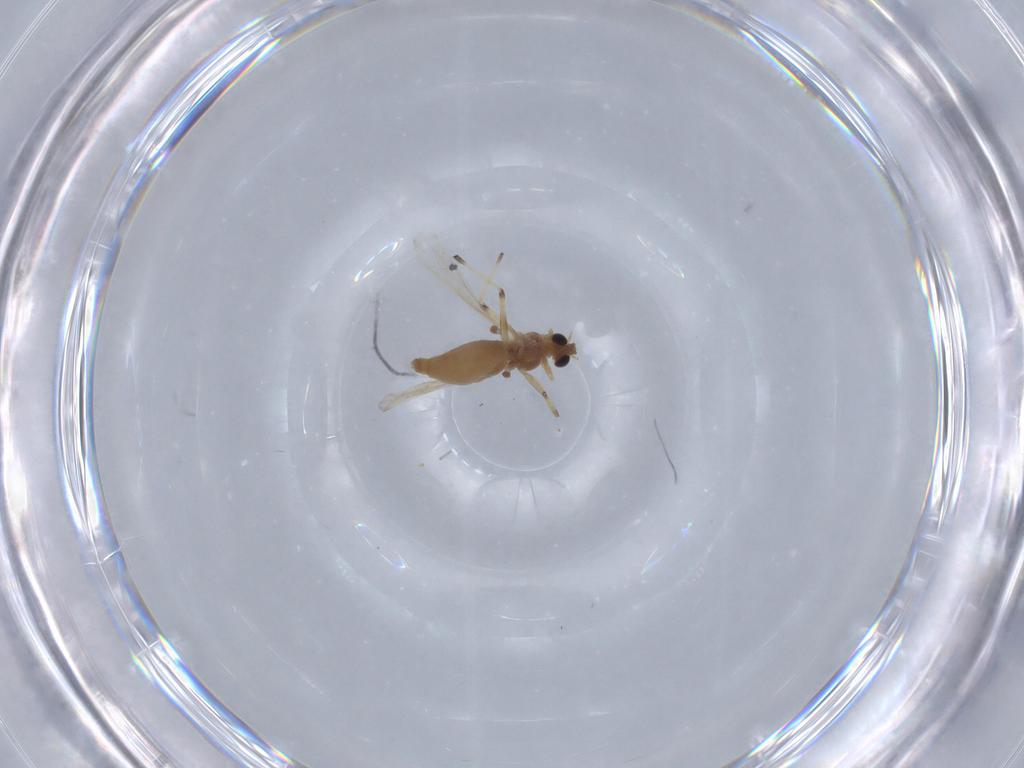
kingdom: Animalia
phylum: Arthropoda
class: Insecta
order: Diptera
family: Chironomidae
